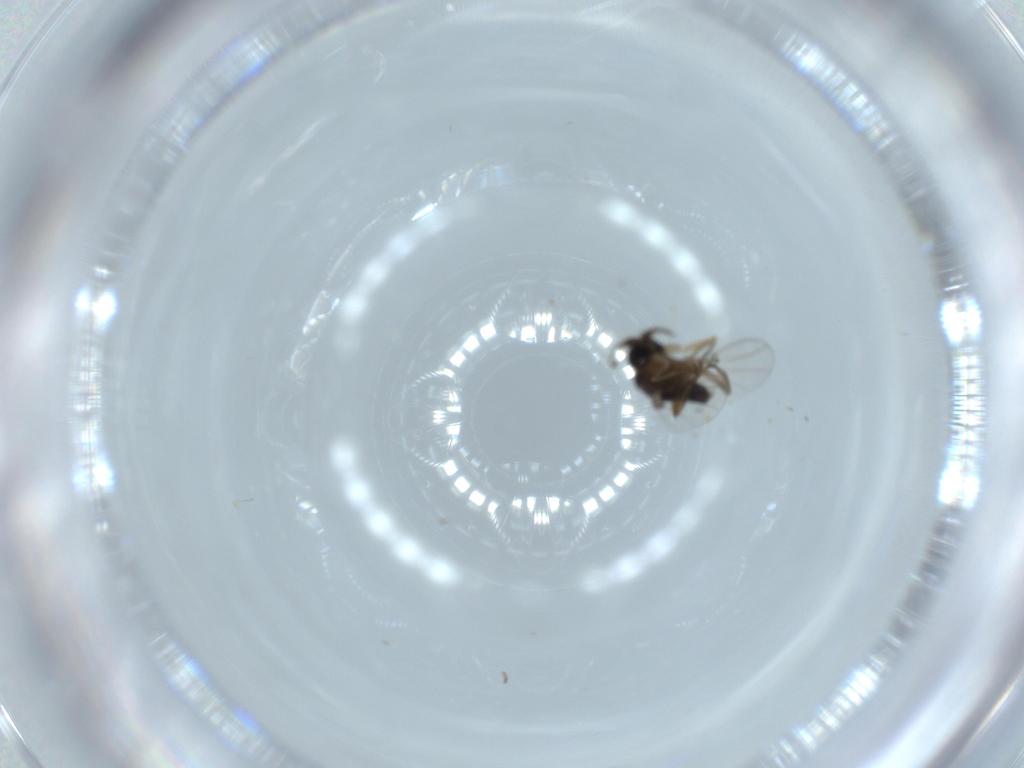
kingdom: Animalia
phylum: Arthropoda
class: Insecta
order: Diptera
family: Phoridae
